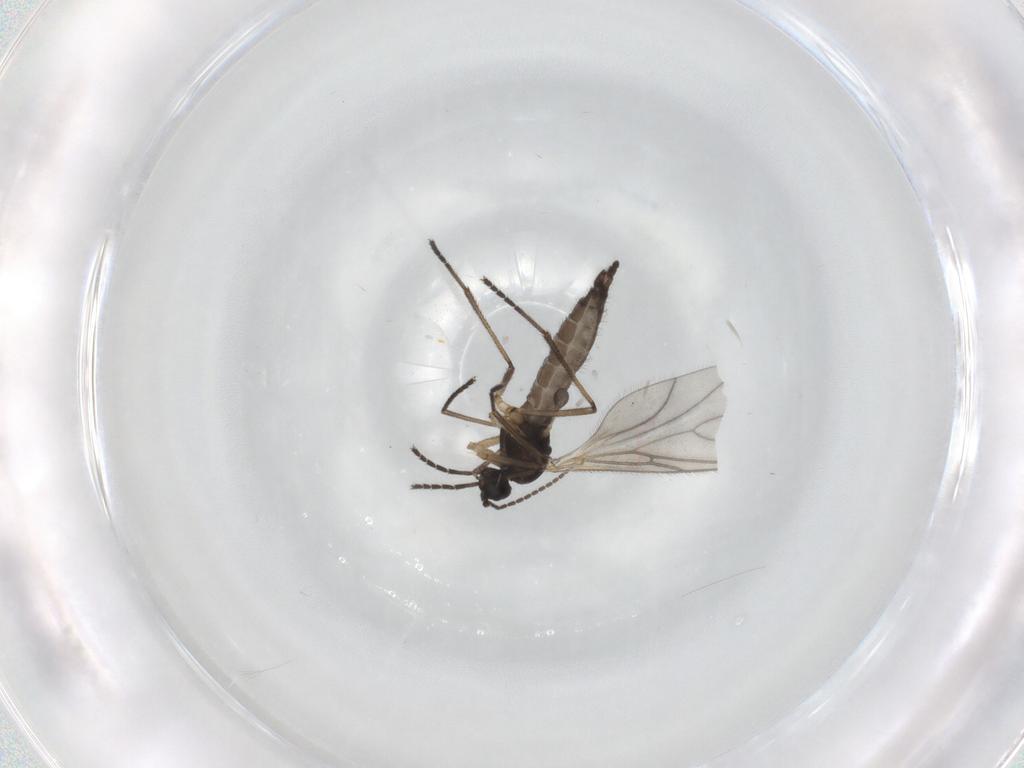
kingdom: Animalia
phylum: Arthropoda
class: Insecta
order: Diptera
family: Sciaridae
